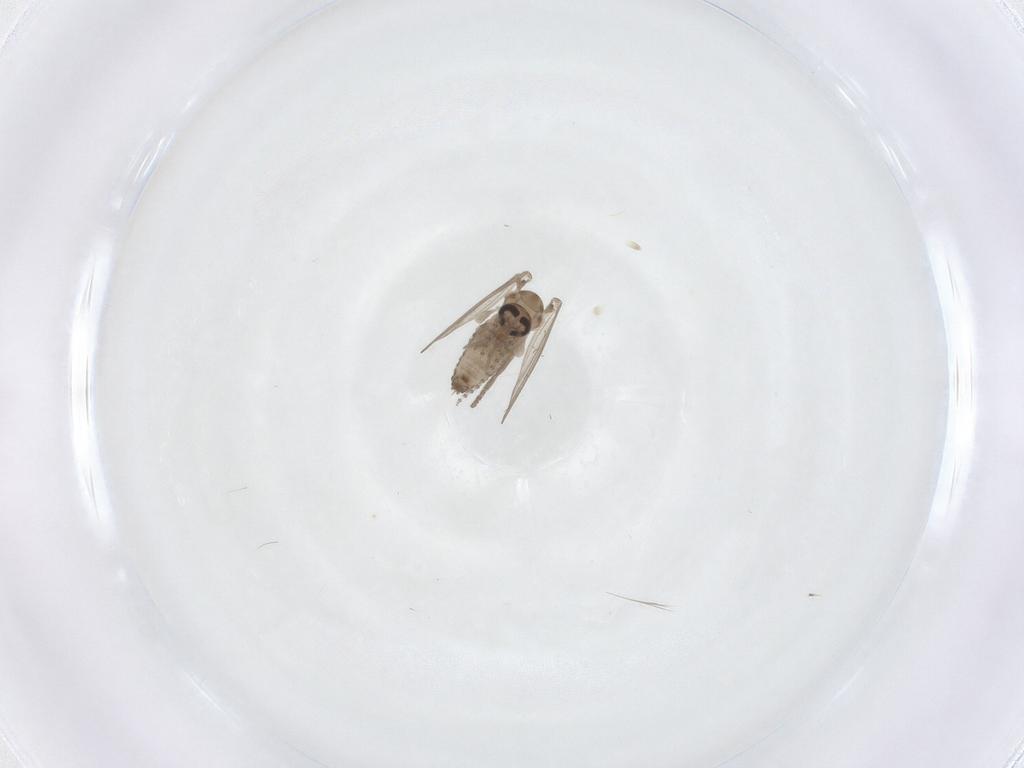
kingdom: Animalia
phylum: Arthropoda
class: Insecta
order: Diptera
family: Psychodidae
